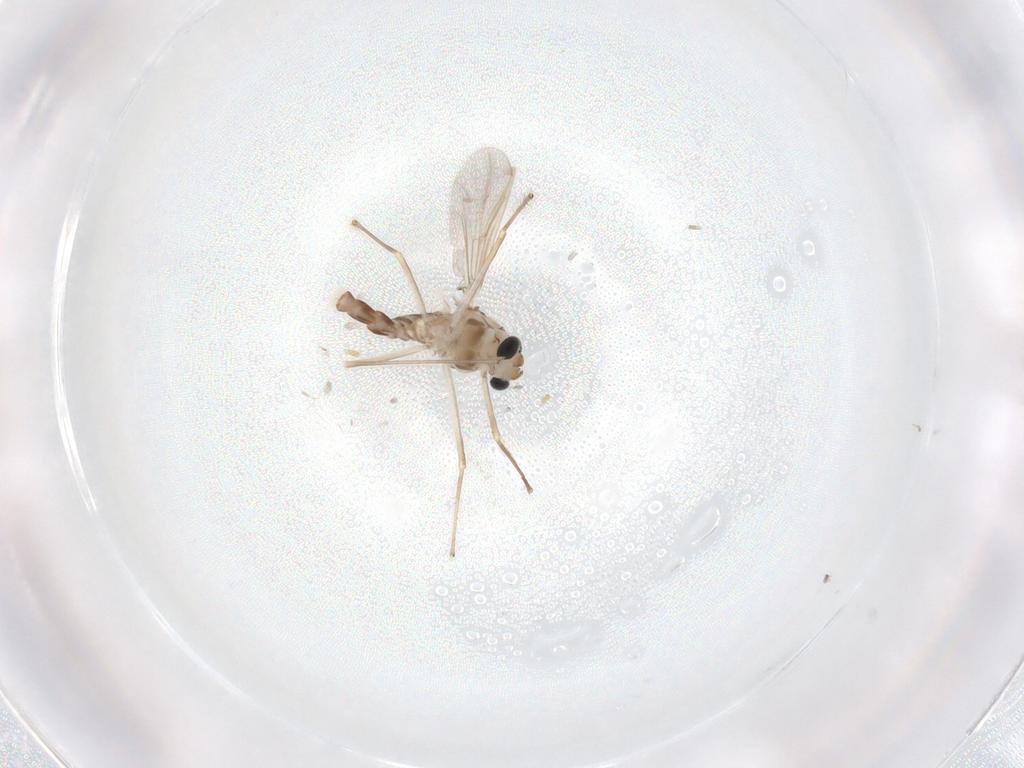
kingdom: Animalia
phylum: Arthropoda
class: Insecta
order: Diptera
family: Chironomidae
